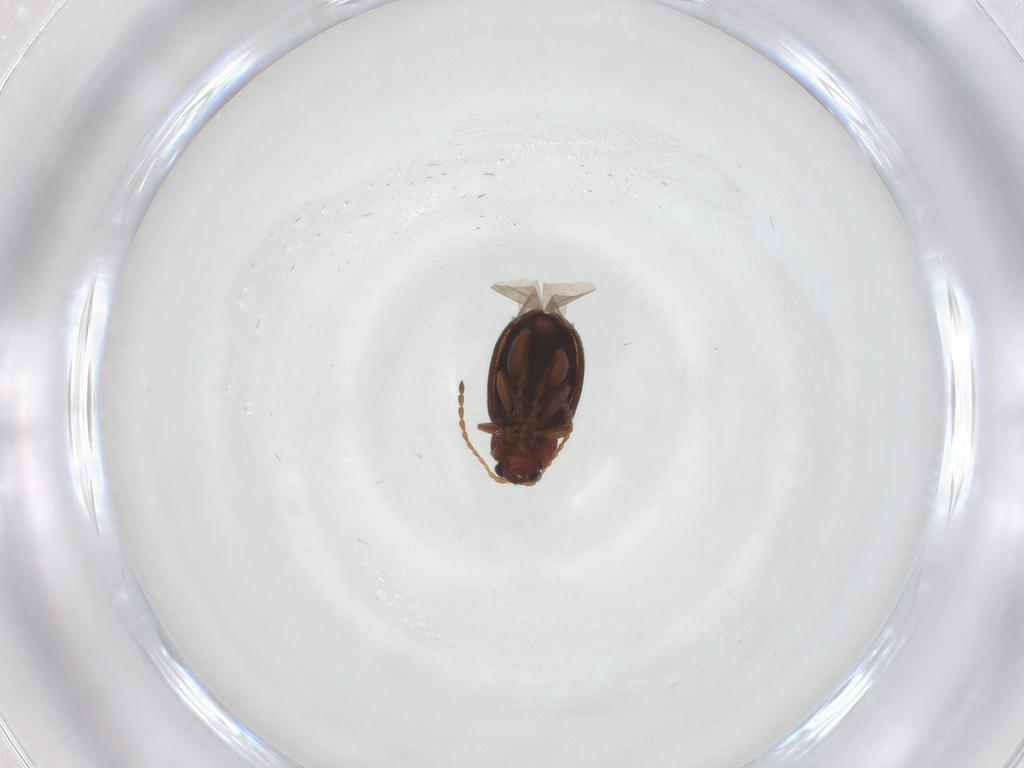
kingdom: Animalia
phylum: Arthropoda
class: Insecta
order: Coleoptera
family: Chrysomelidae
